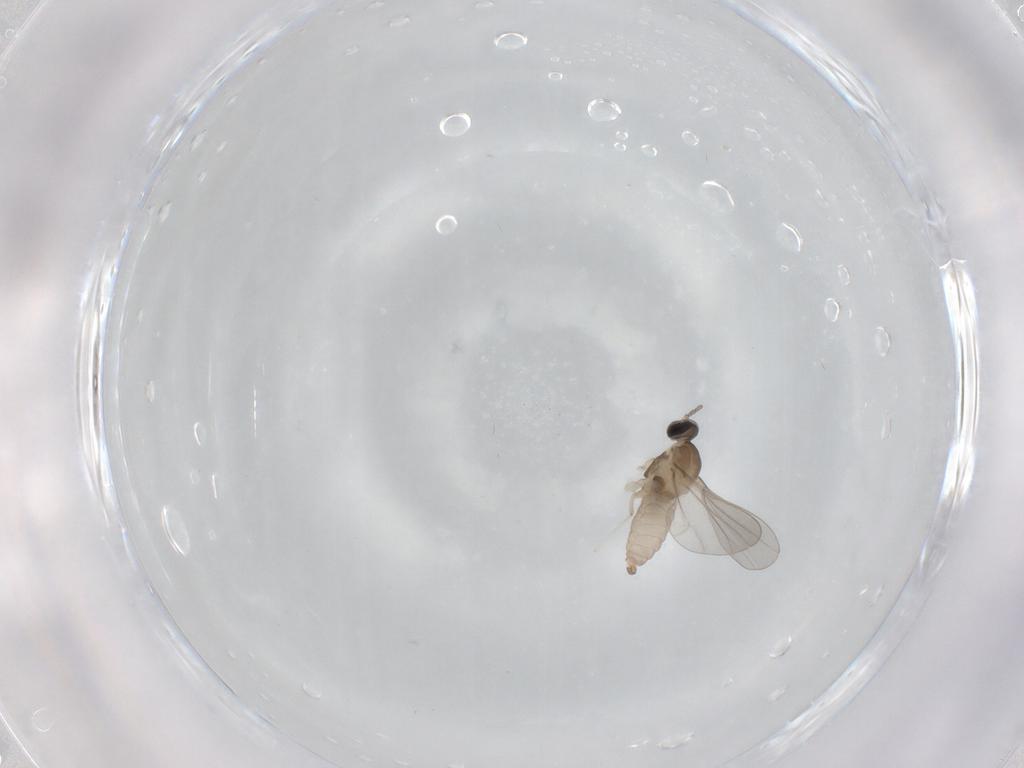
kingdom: Animalia
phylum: Arthropoda
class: Insecta
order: Diptera
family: Cecidomyiidae
